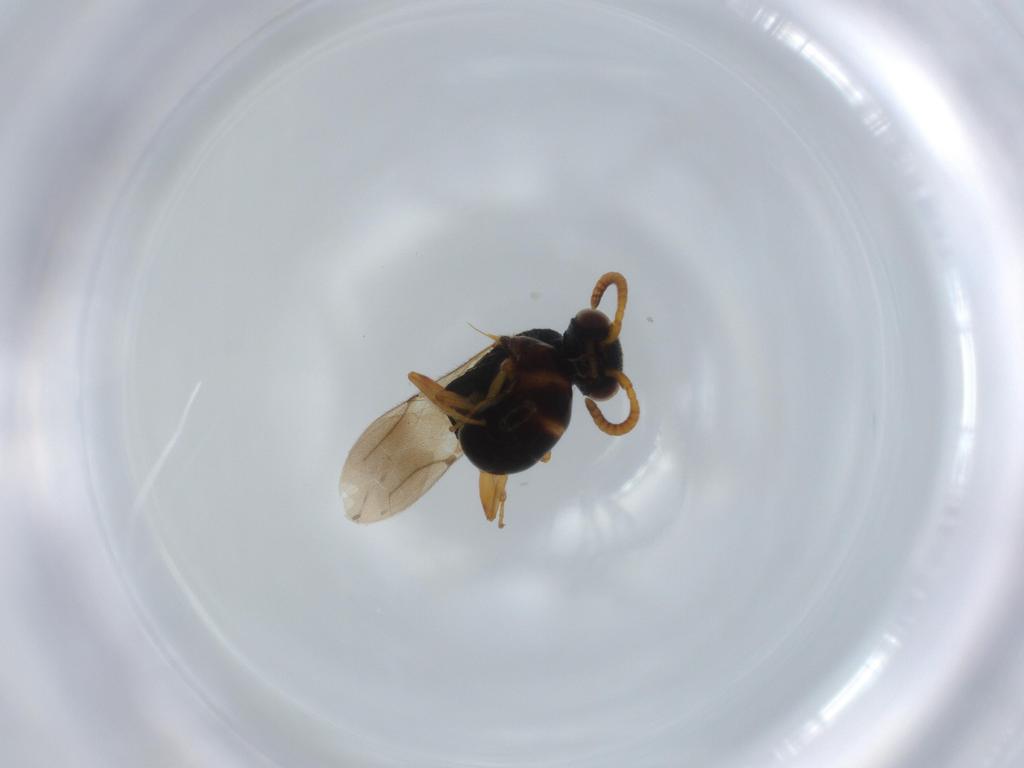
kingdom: Animalia
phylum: Arthropoda
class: Insecta
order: Hymenoptera
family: Bethylidae
